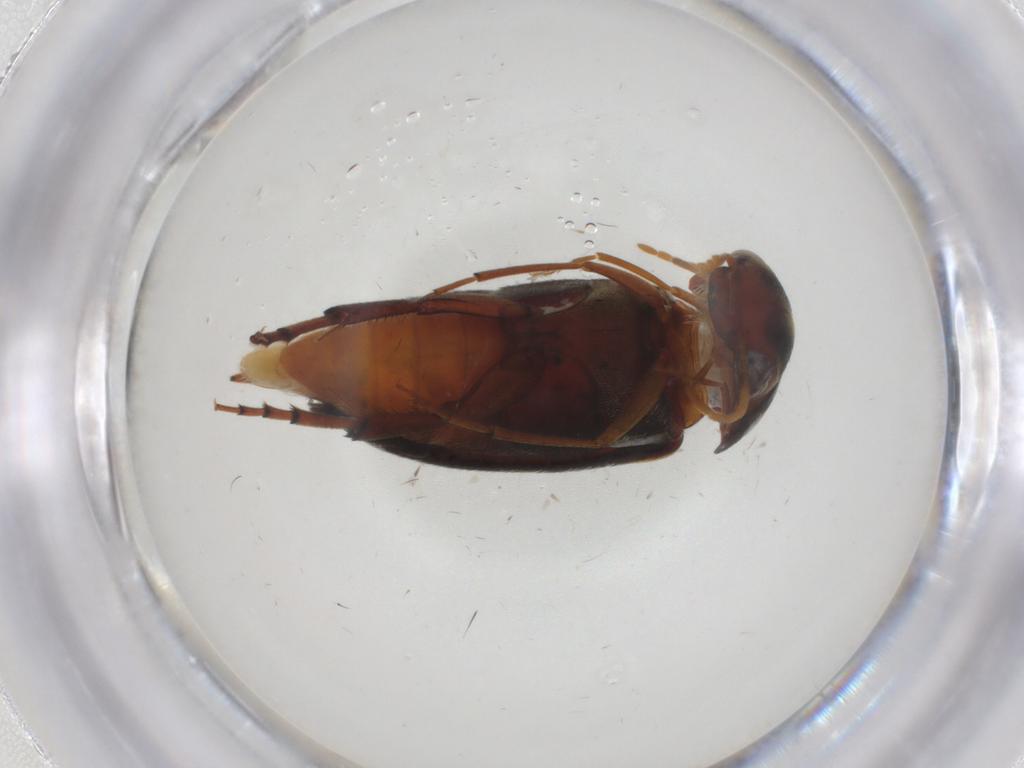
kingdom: Animalia
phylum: Arthropoda
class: Insecta
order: Coleoptera
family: Mordellidae
